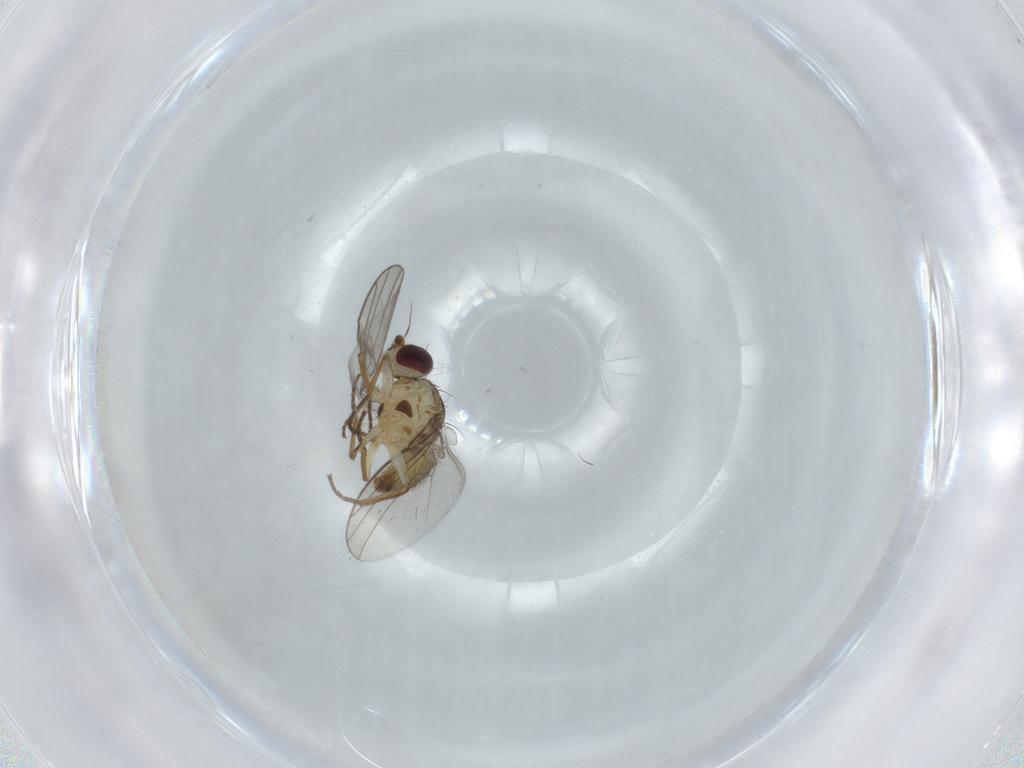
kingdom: Animalia
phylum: Arthropoda
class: Insecta
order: Diptera
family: Agromyzidae
